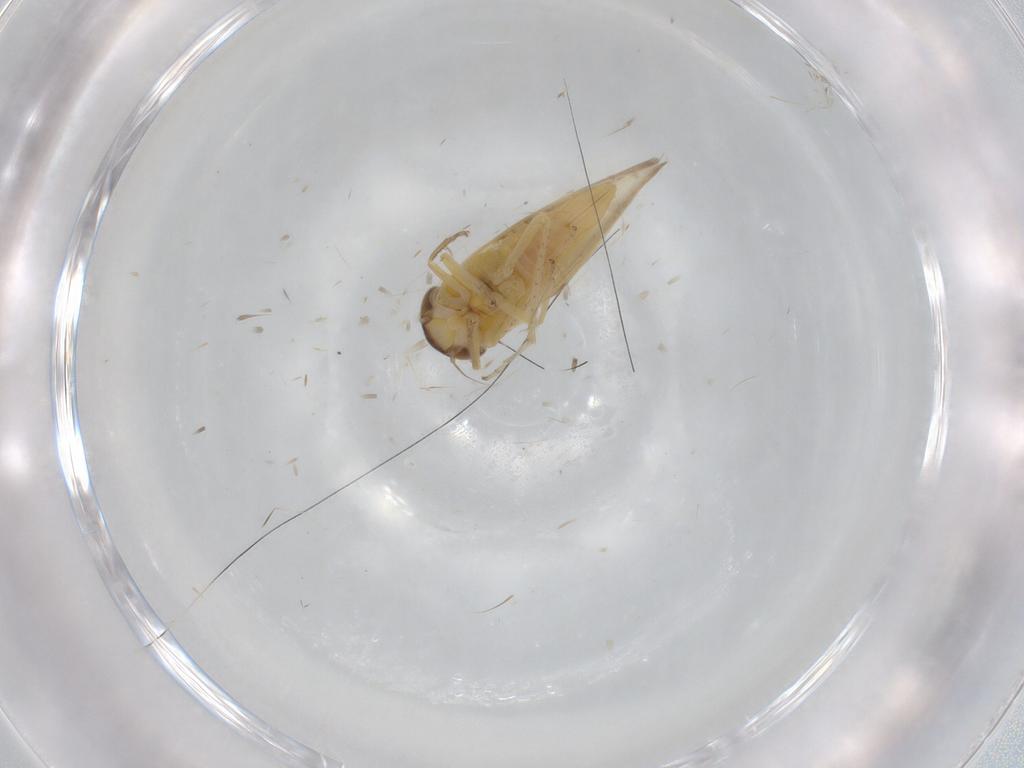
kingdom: Animalia
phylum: Arthropoda
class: Insecta
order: Hemiptera
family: Cicadellidae
